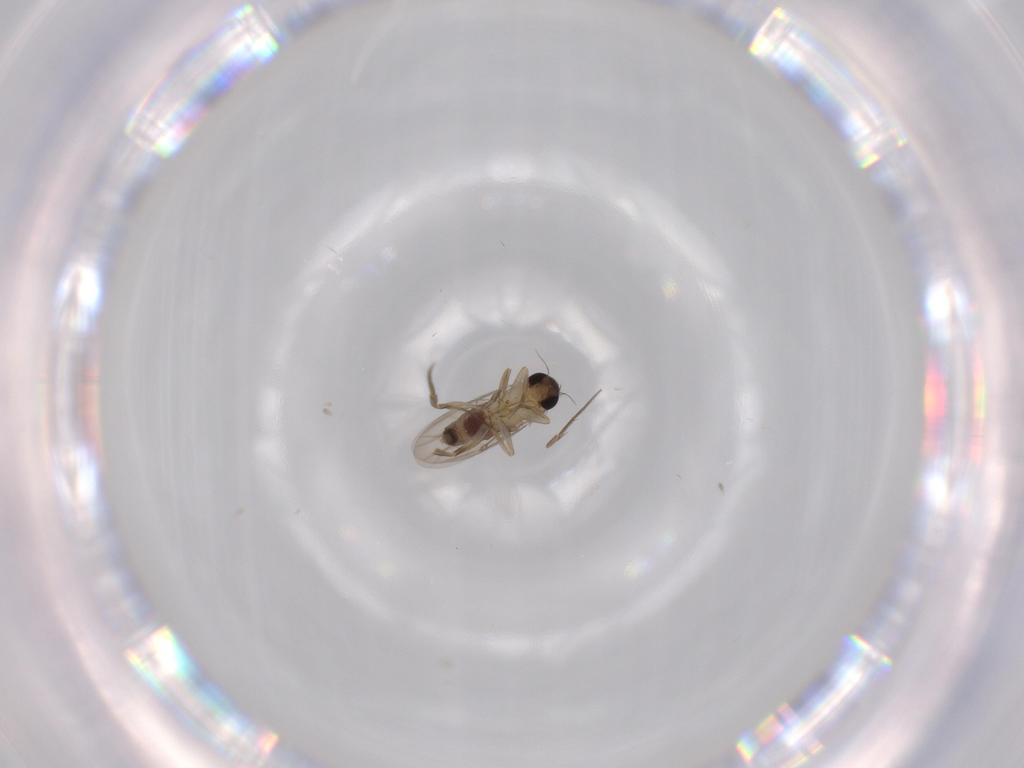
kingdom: Animalia
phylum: Arthropoda
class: Insecta
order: Diptera
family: Phoridae
